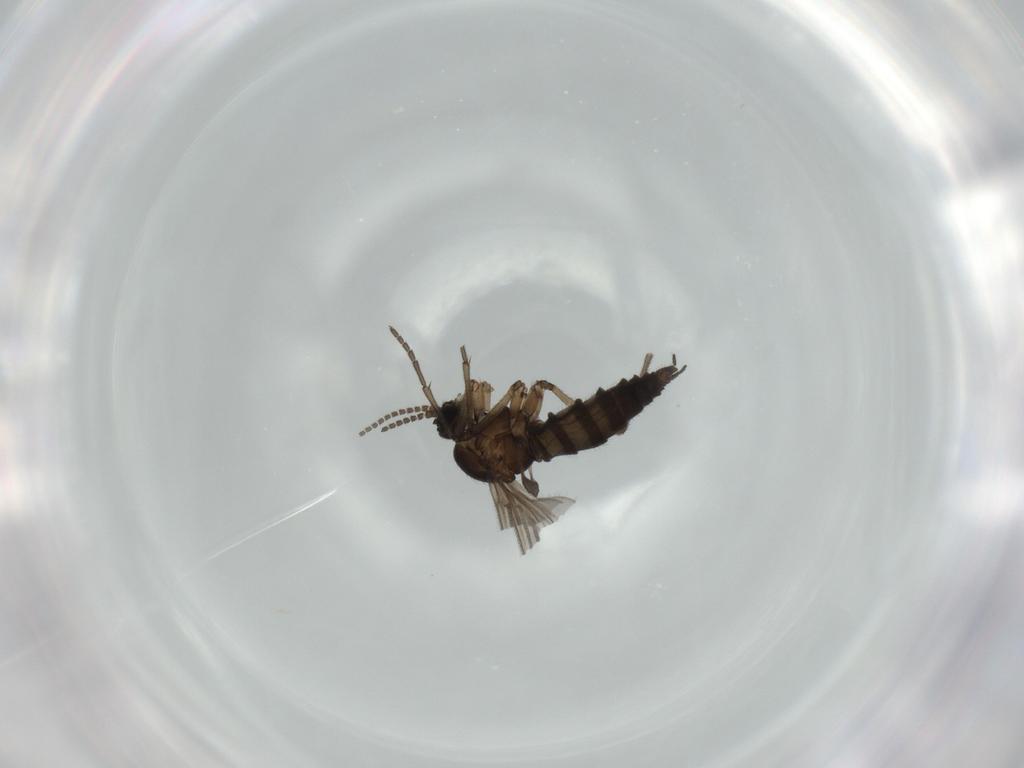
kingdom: Animalia
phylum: Arthropoda
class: Insecta
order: Diptera
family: Sciaridae
